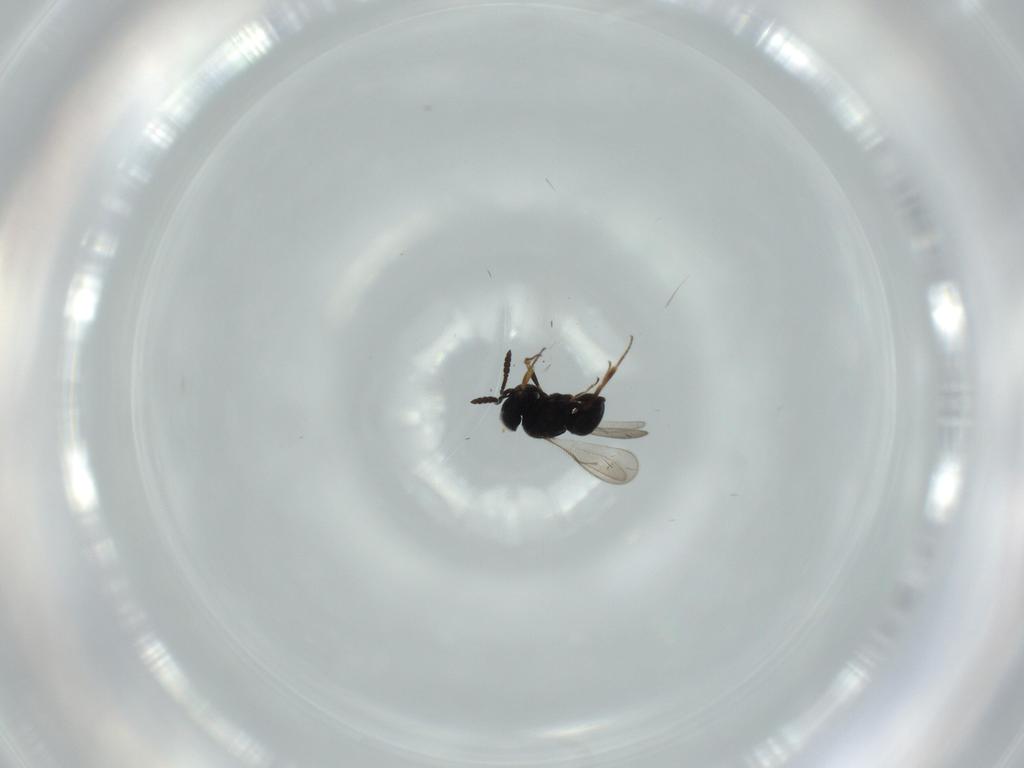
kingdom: Animalia
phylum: Arthropoda
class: Insecta
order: Hymenoptera
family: Scelionidae
